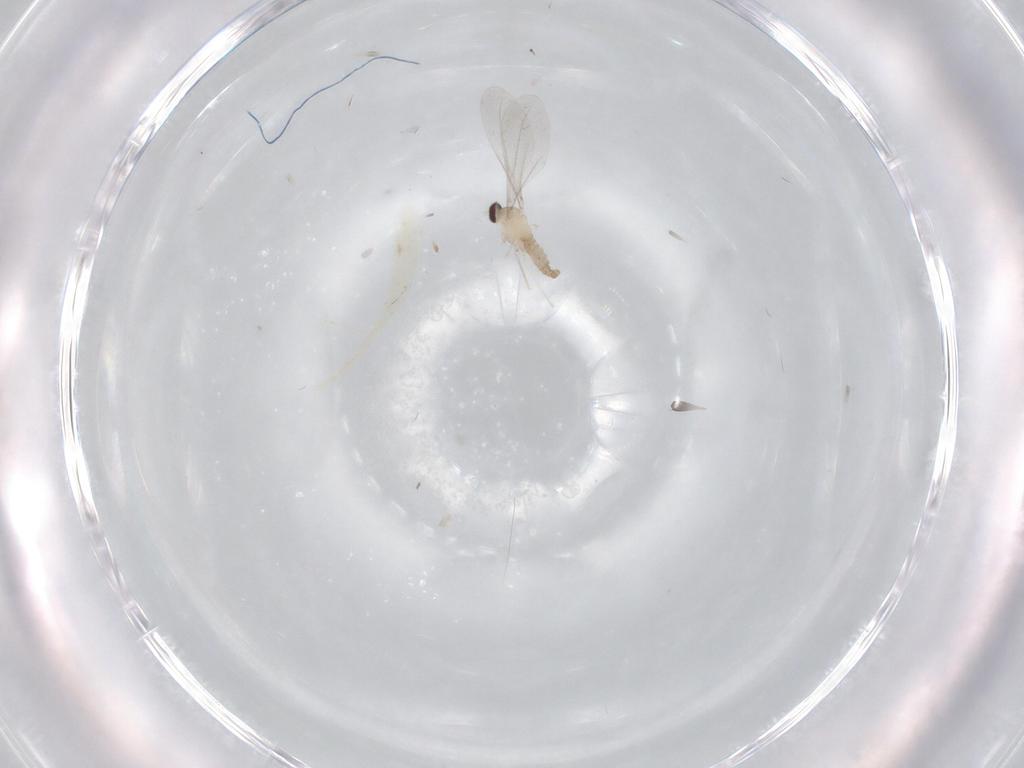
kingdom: Animalia
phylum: Arthropoda
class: Insecta
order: Diptera
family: Cecidomyiidae
